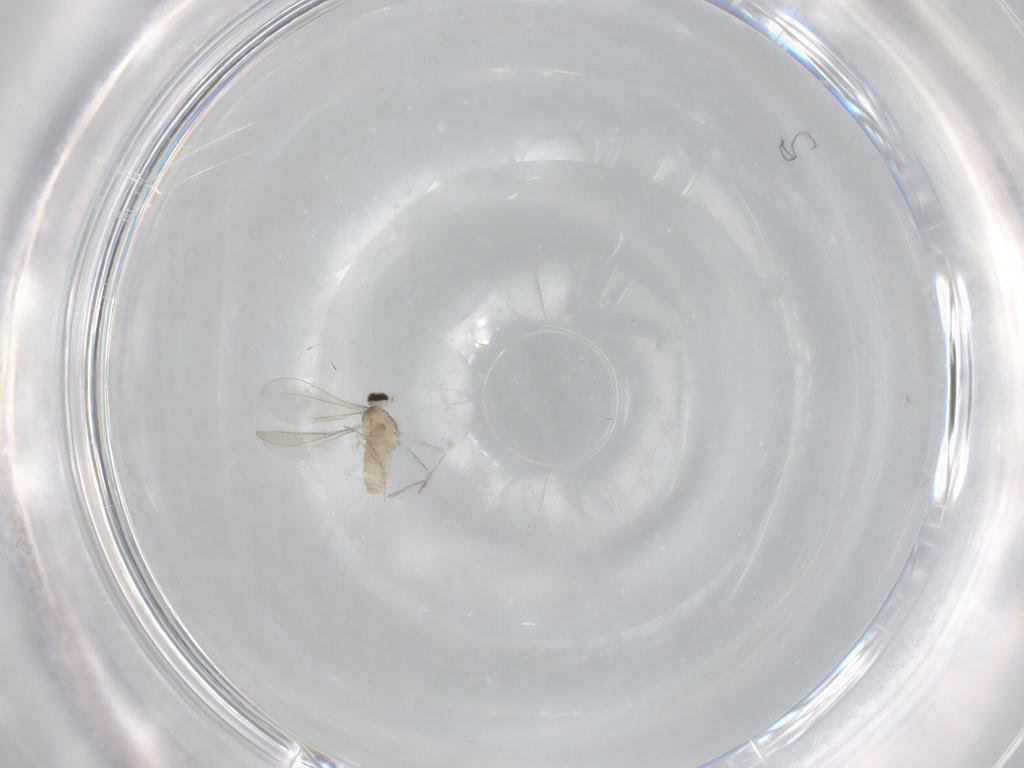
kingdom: Animalia
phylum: Arthropoda
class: Insecta
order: Diptera
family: Cecidomyiidae
